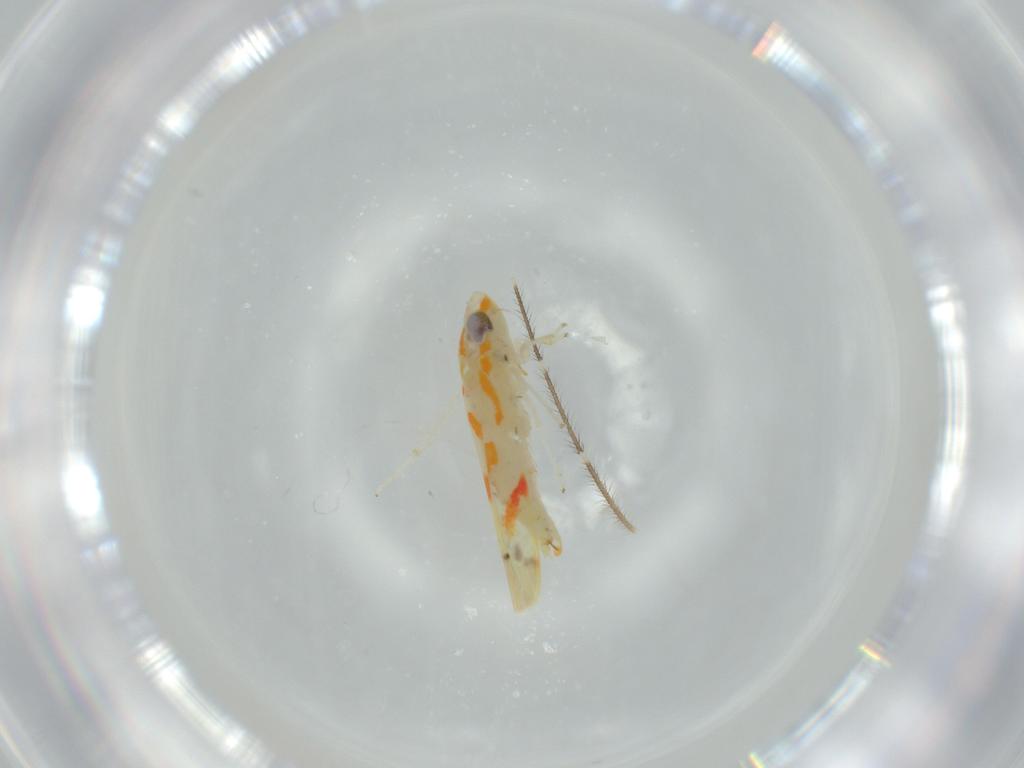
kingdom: Animalia
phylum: Arthropoda
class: Insecta
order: Hemiptera
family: Cicadellidae
